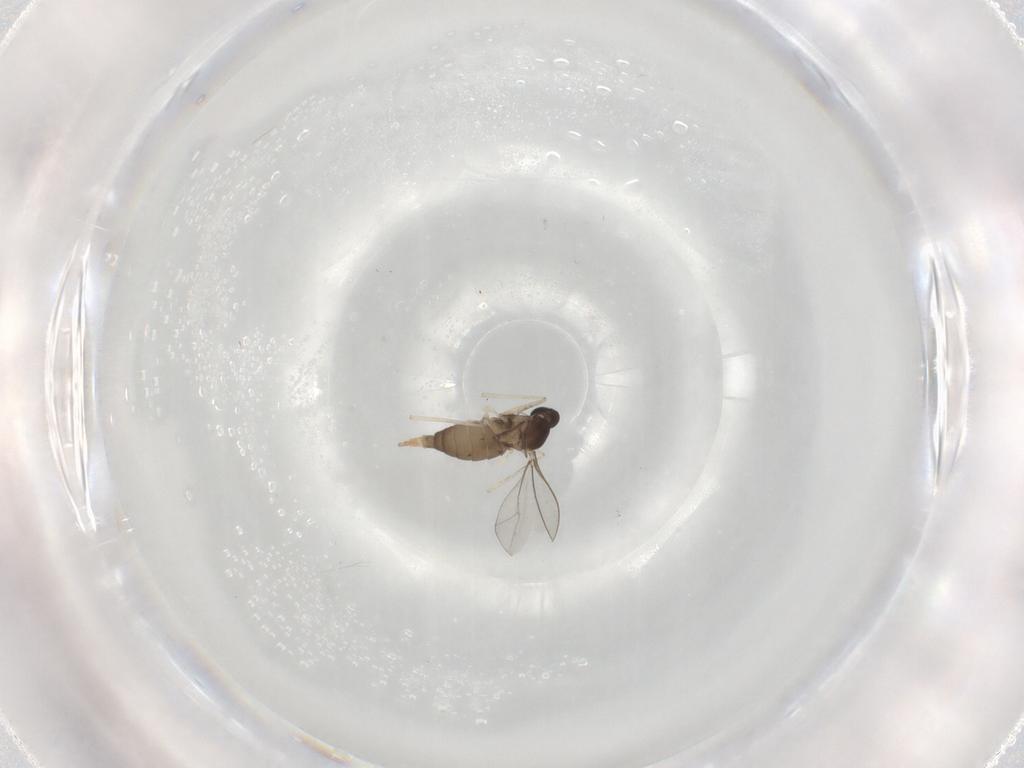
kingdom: Animalia
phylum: Arthropoda
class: Insecta
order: Diptera
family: Cecidomyiidae
